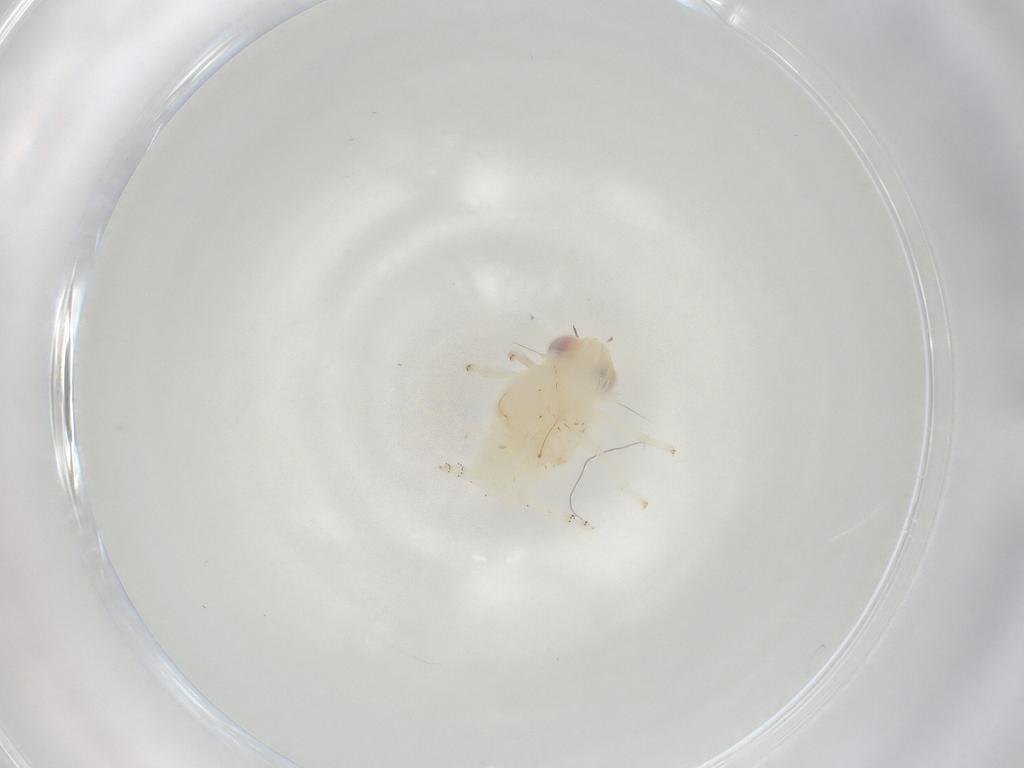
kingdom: Animalia
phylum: Arthropoda
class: Insecta
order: Hemiptera
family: Nogodinidae
